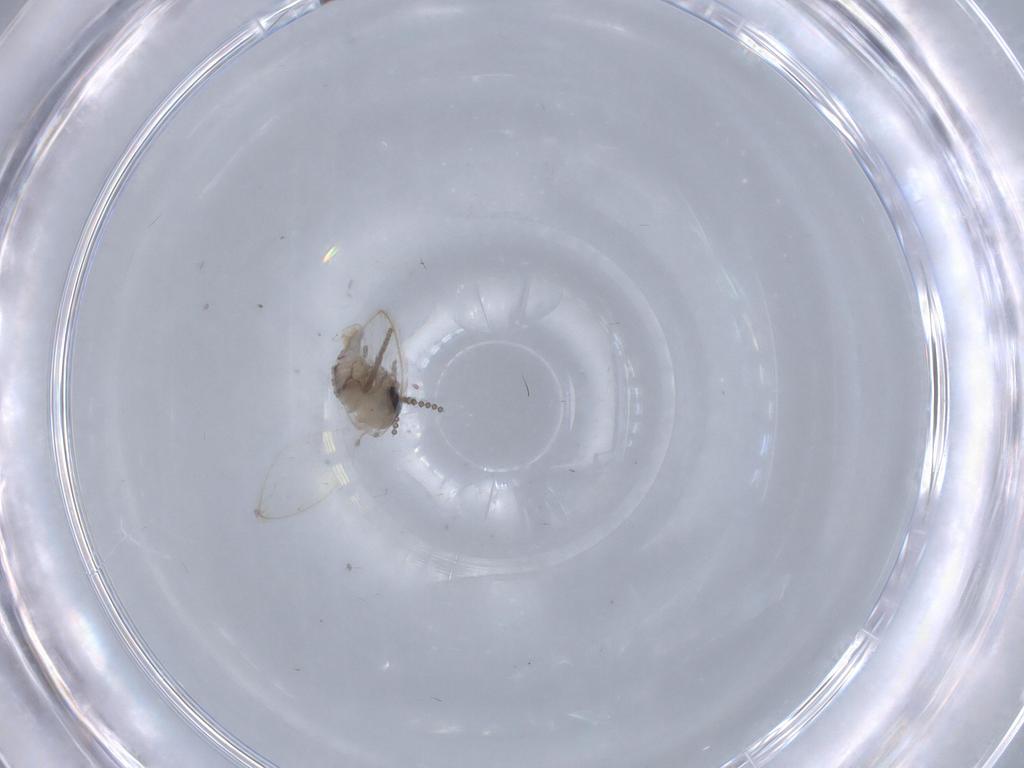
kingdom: Animalia
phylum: Arthropoda
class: Insecta
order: Diptera
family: Psychodidae
